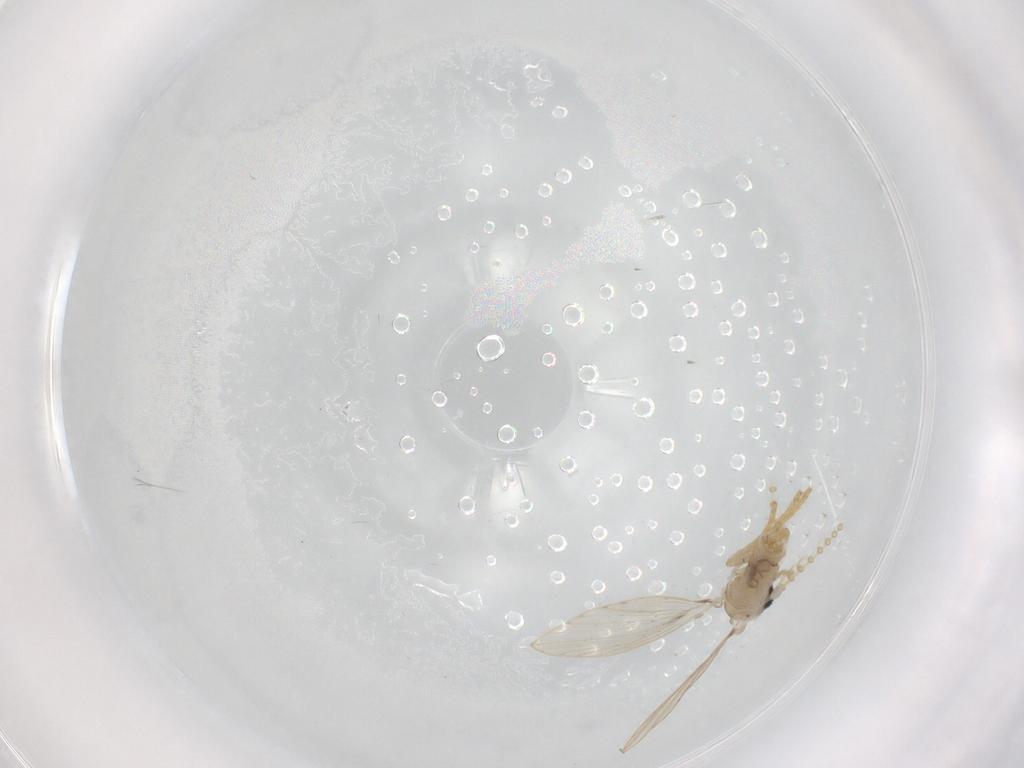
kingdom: Animalia
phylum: Arthropoda
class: Insecta
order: Diptera
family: Psychodidae
